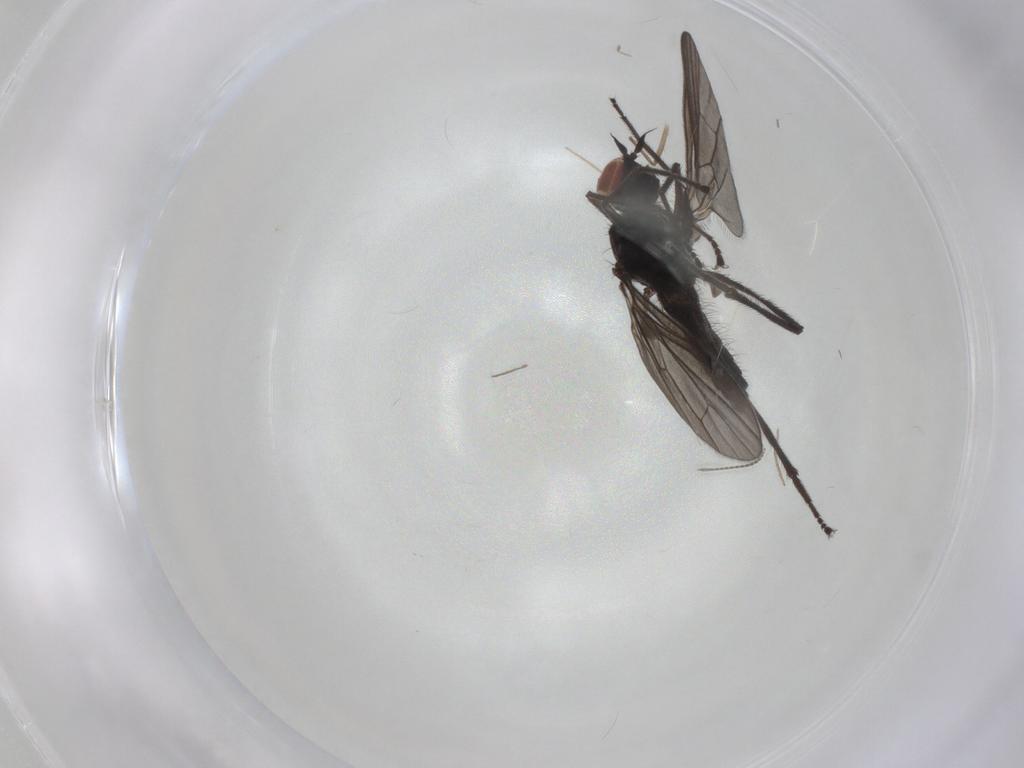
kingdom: Animalia
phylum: Arthropoda
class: Insecta
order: Diptera
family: Hybotidae
